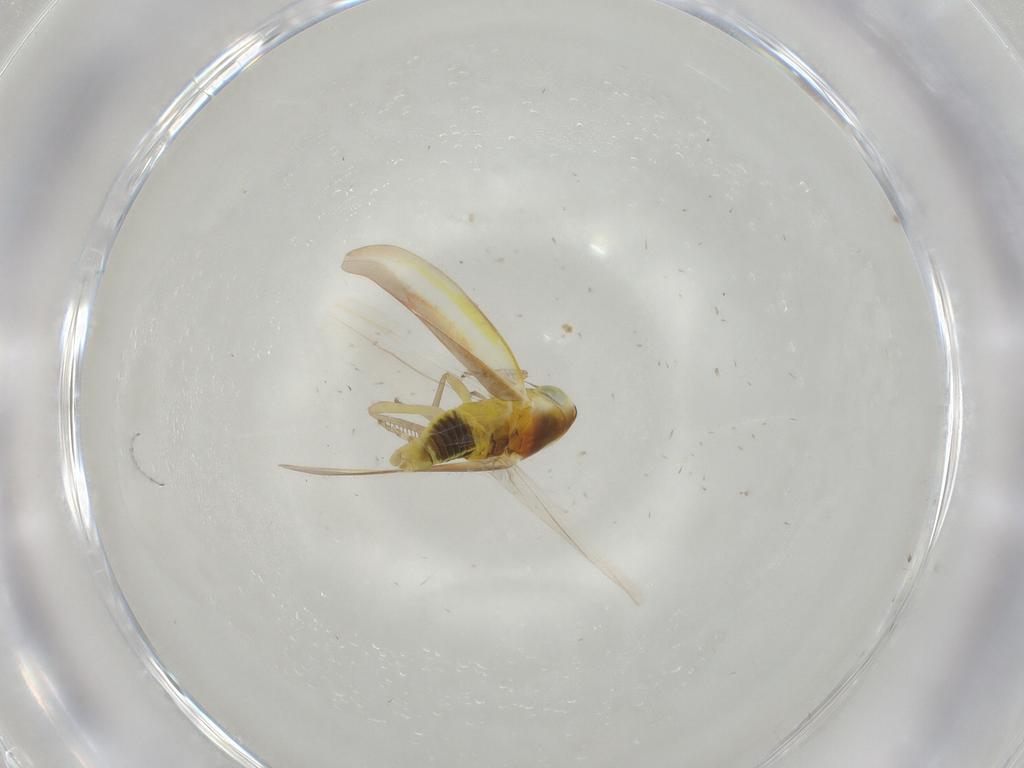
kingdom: Animalia
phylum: Arthropoda
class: Insecta
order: Hemiptera
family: Cicadellidae
